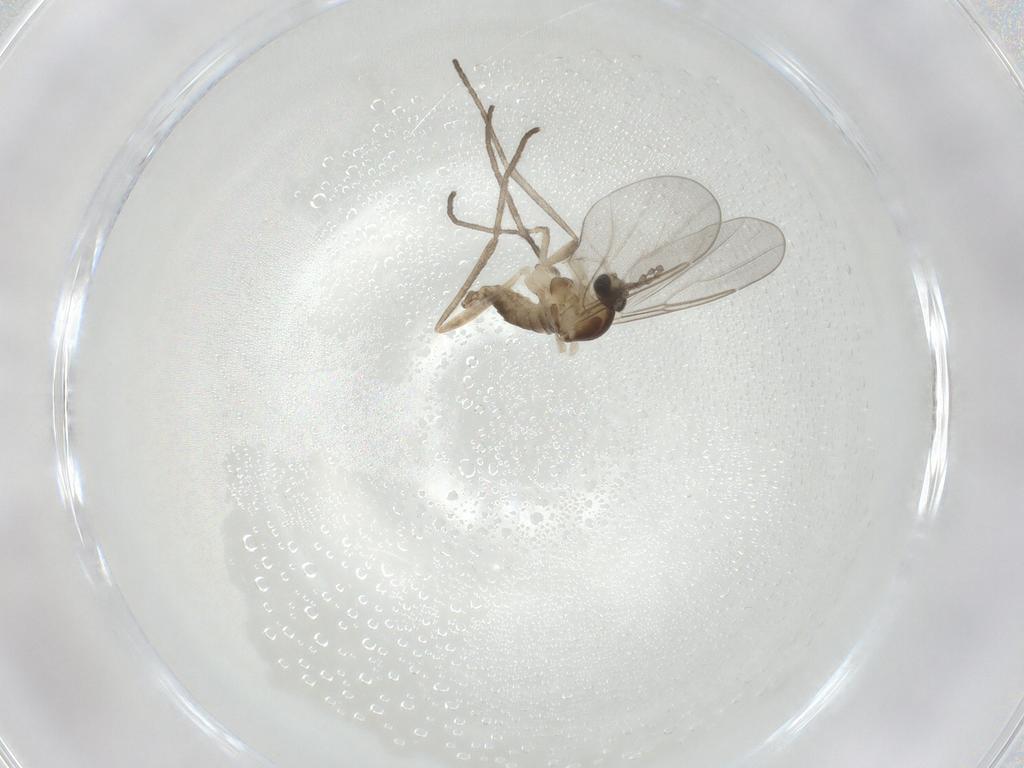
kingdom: Animalia
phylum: Arthropoda
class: Insecta
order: Diptera
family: Cecidomyiidae
